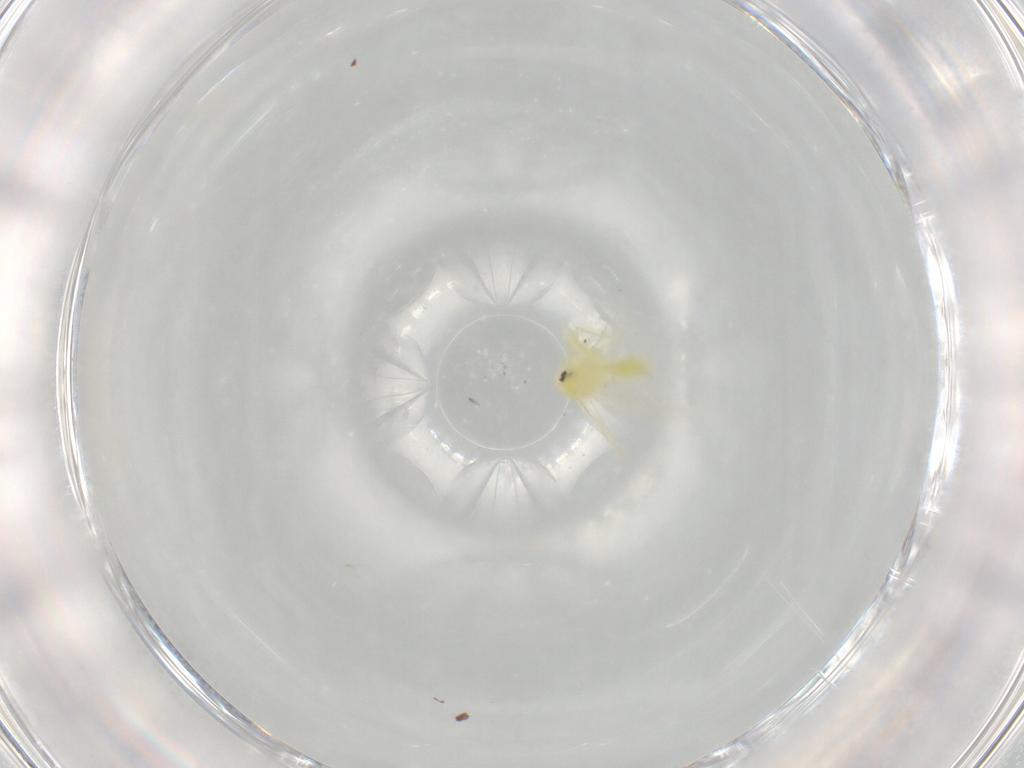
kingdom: Animalia
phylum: Arthropoda
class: Insecta
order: Hemiptera
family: Aleyrodidae
